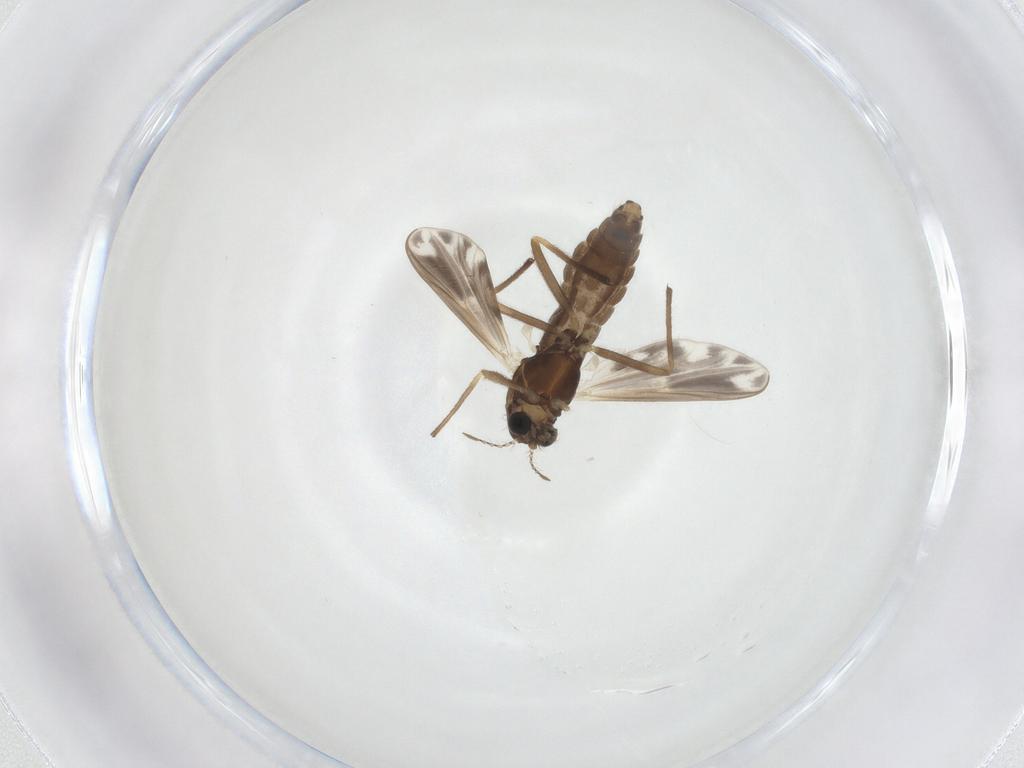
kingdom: Animalia
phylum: Arthropoda
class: Insecta
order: Diptera
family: Chironomidae
